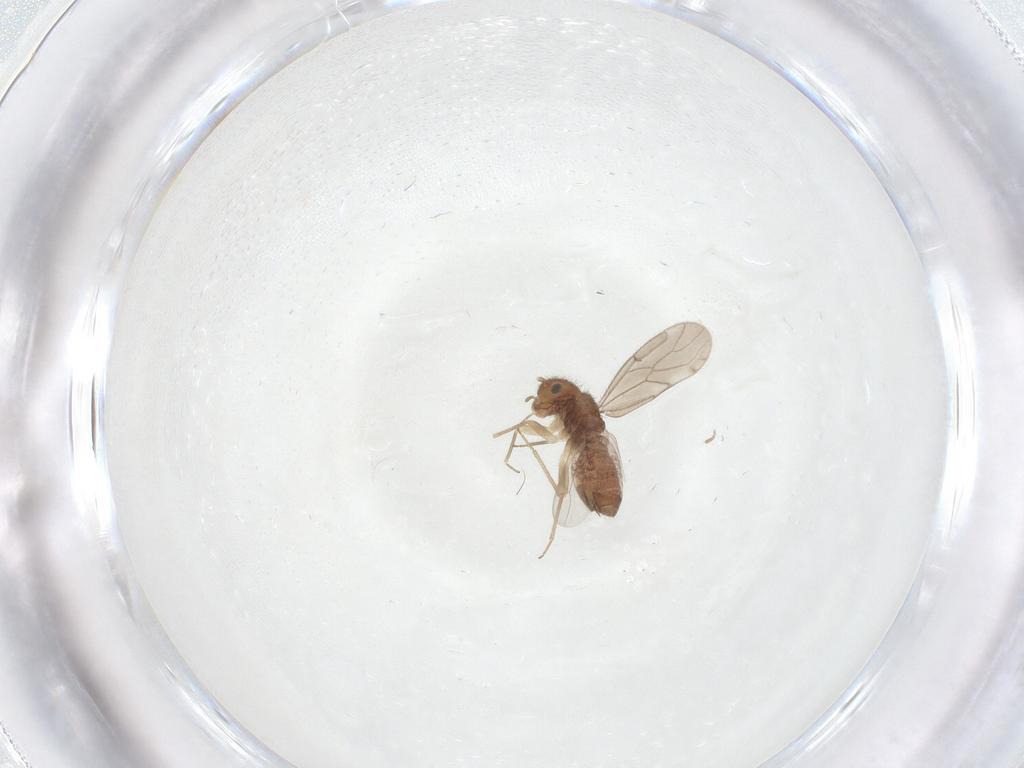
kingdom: Animalia
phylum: Arthropoda
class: Insecta
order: Psocodea
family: Ectopsocidae
